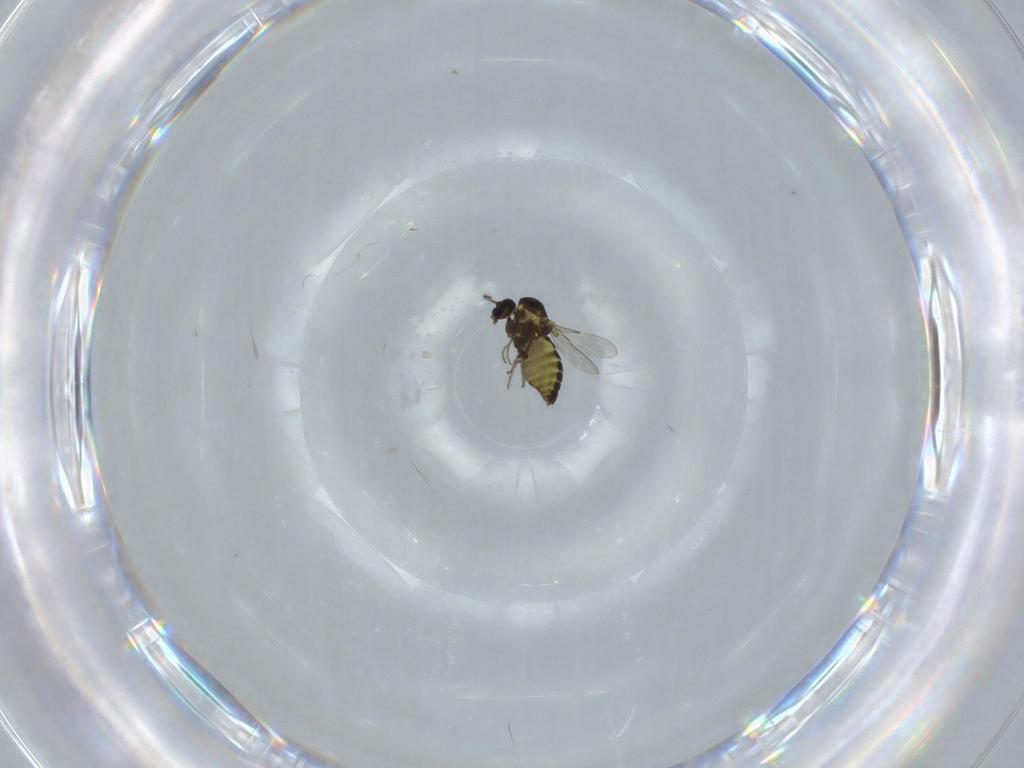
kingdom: Animalia
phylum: Arthropoda
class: Insecta
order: Diptera
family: Ceratopogonidae
